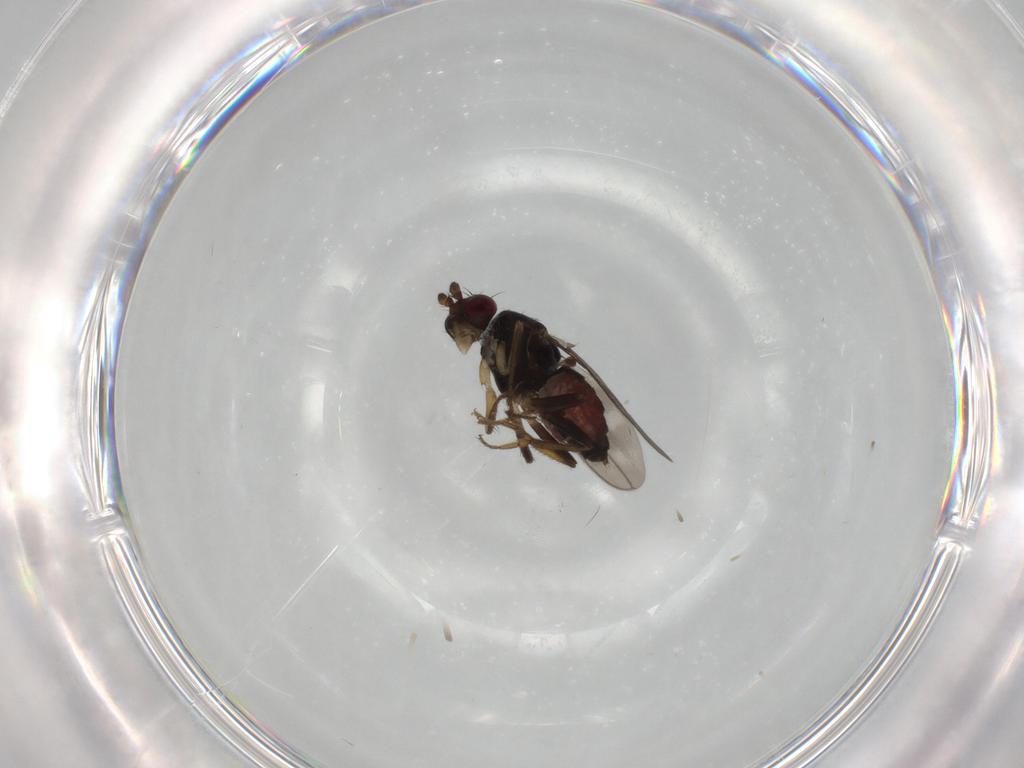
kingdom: Animalia
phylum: Arthropoda
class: Insecta
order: Diptera
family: Sphaeroceridae
